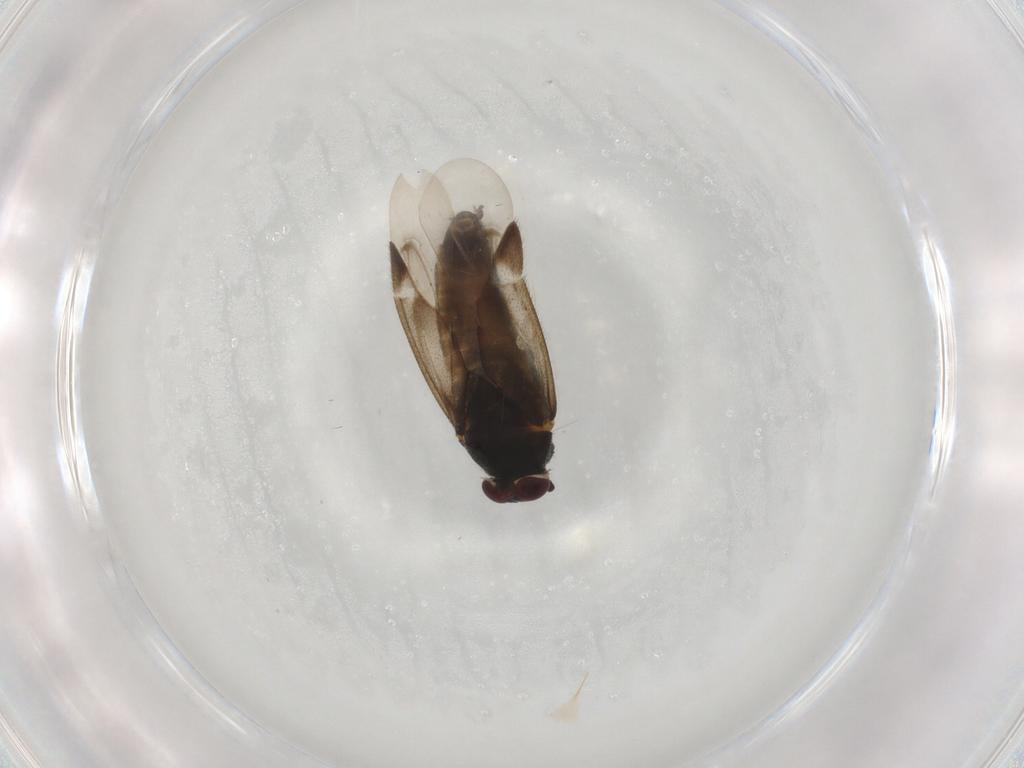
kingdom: Animalia
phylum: Arthropoda
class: Insecta
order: Hemiptera
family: Miridae
